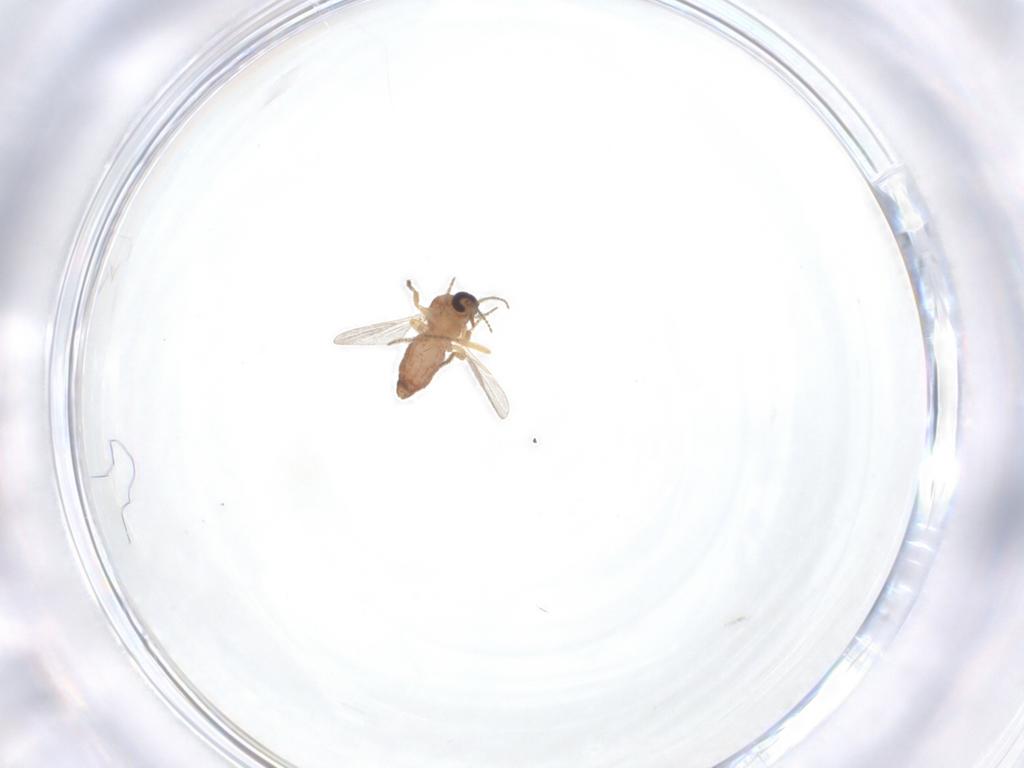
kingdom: Animalia
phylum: Arthropoda
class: Insecta
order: Diptera
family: Ceratopogonidae
